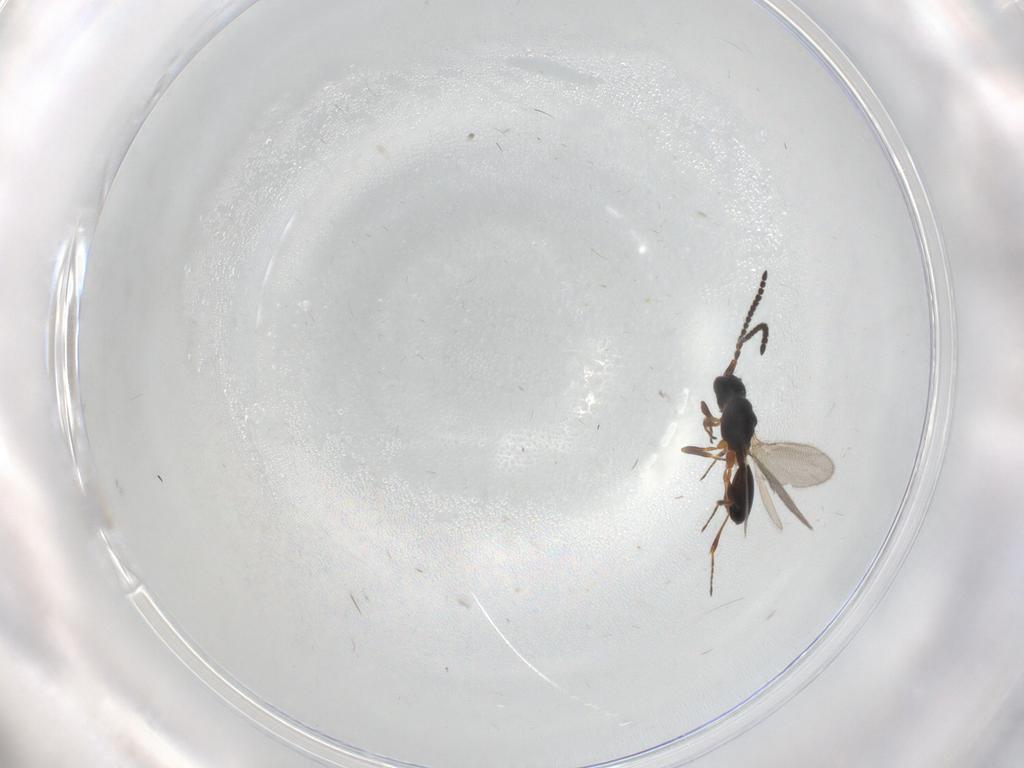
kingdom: Animalia
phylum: Arthropoda
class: Insecta
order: Hymenoptera
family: Diapriidae
